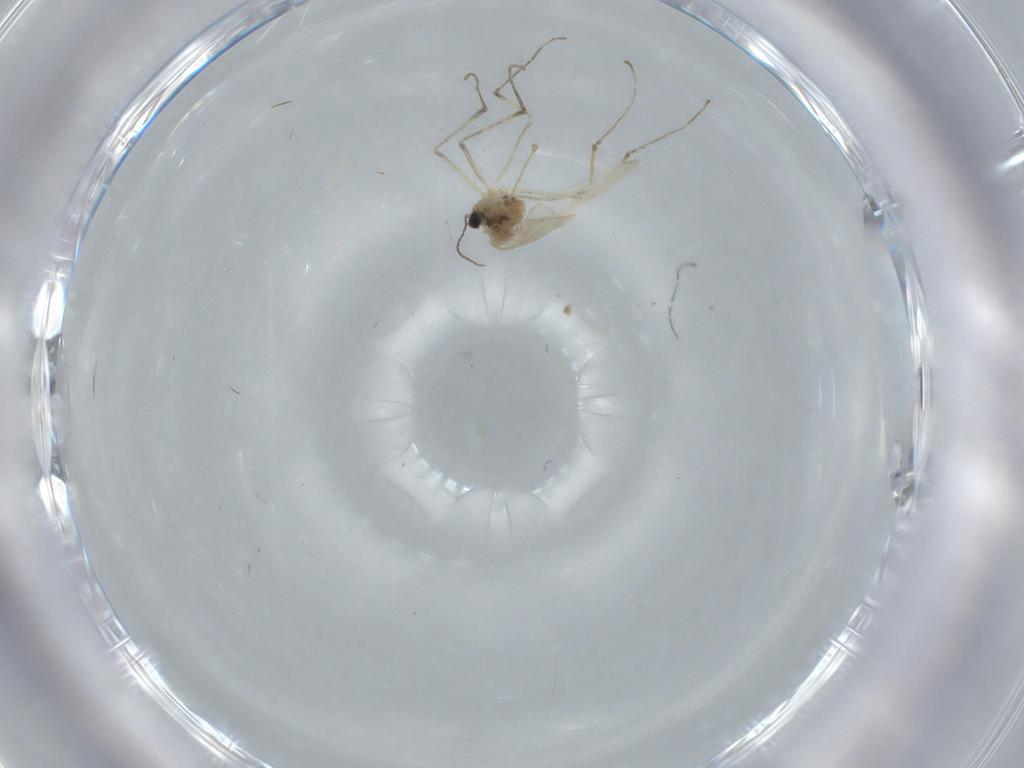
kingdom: Animalia
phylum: Arthropoda
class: Insecta
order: Diptera
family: Cecidomyiidae
